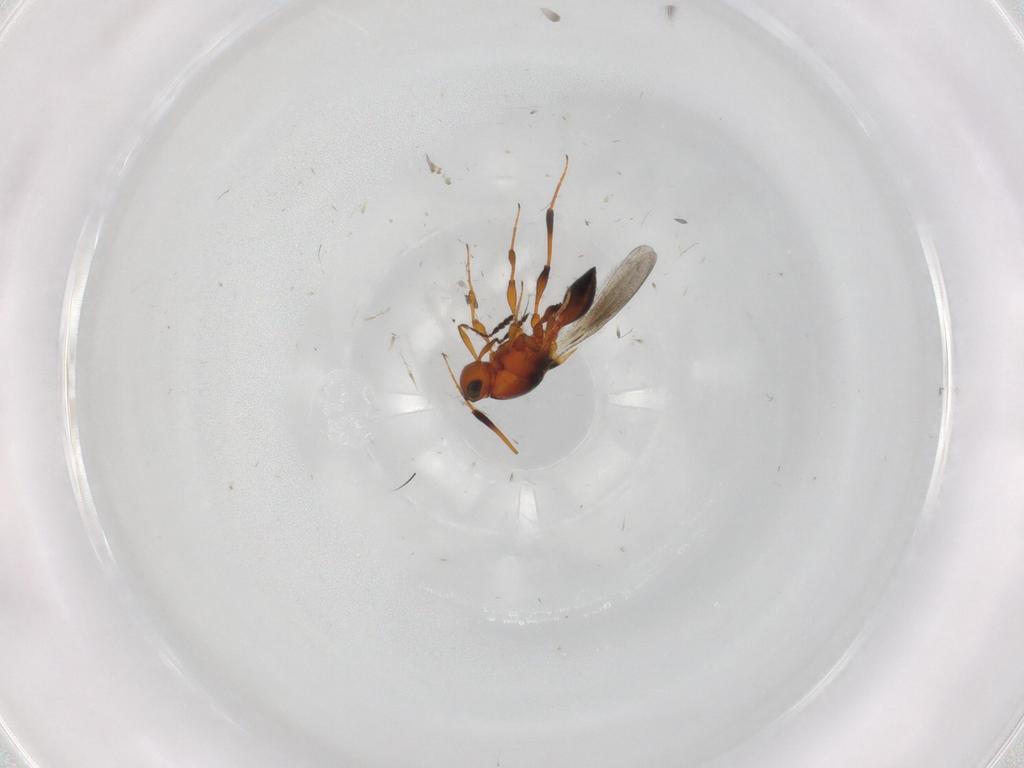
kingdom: Animalia
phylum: Arthropoda
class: Insecta
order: Hymenoptera
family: Platygastridae
